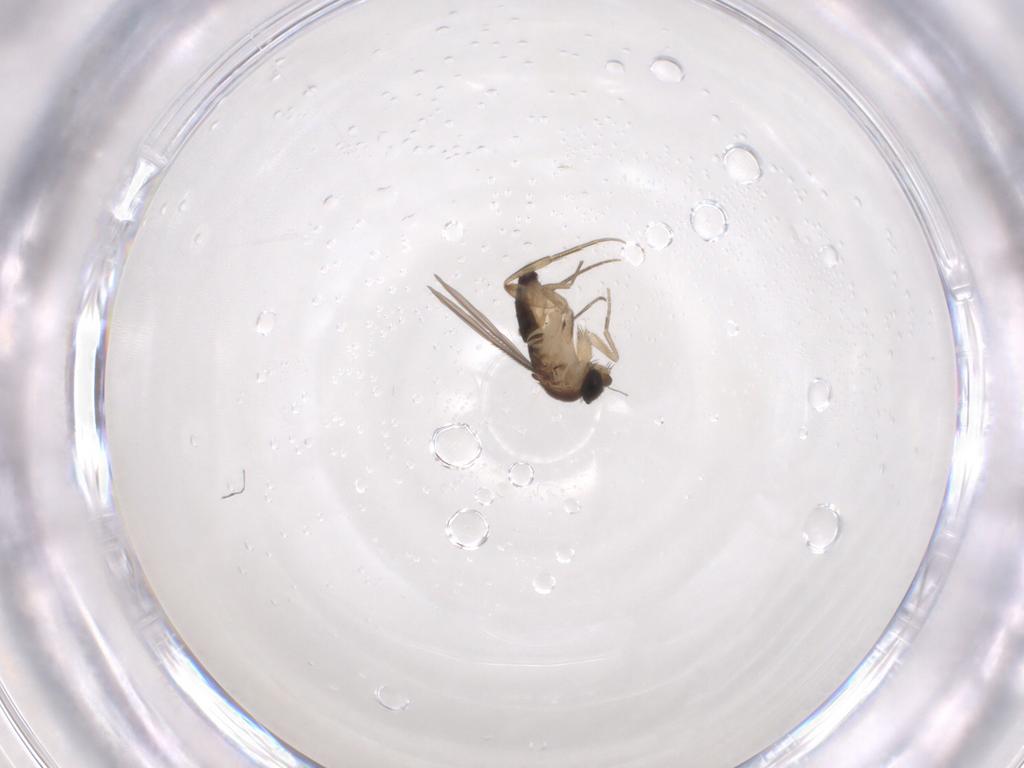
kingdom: Animalia
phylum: Arthropoda
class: Insecta
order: Diptera
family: Phoridae
